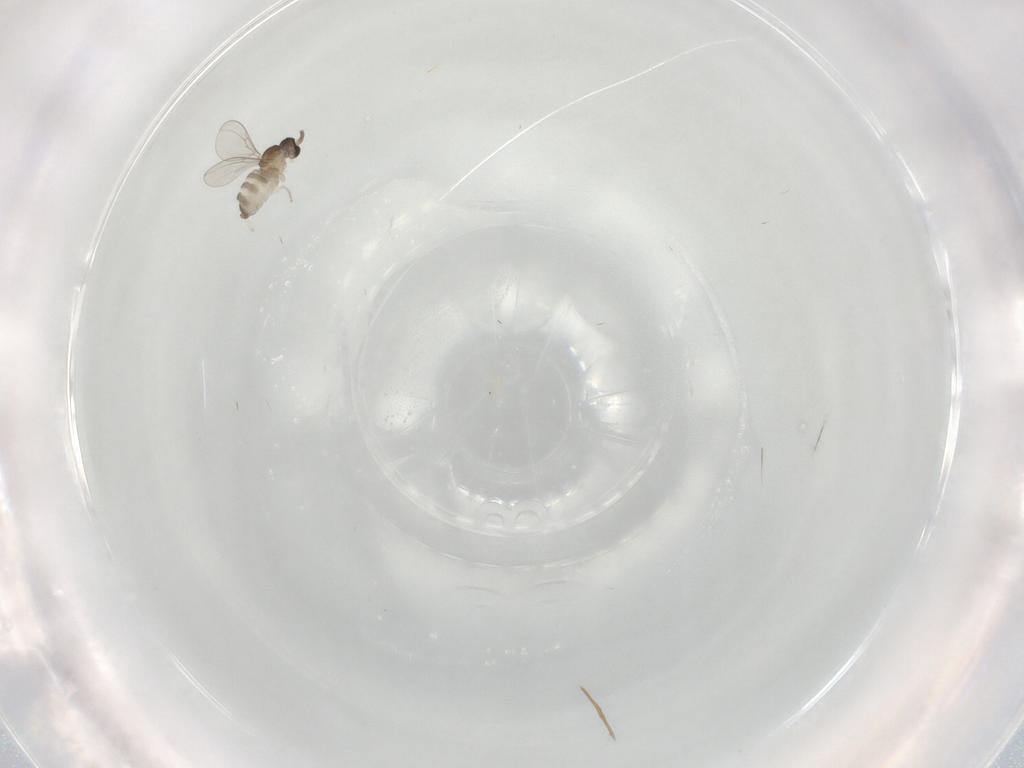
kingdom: Animalia
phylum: Arthropoda
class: Insecta
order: Diptera
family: Cecidomyiidae
